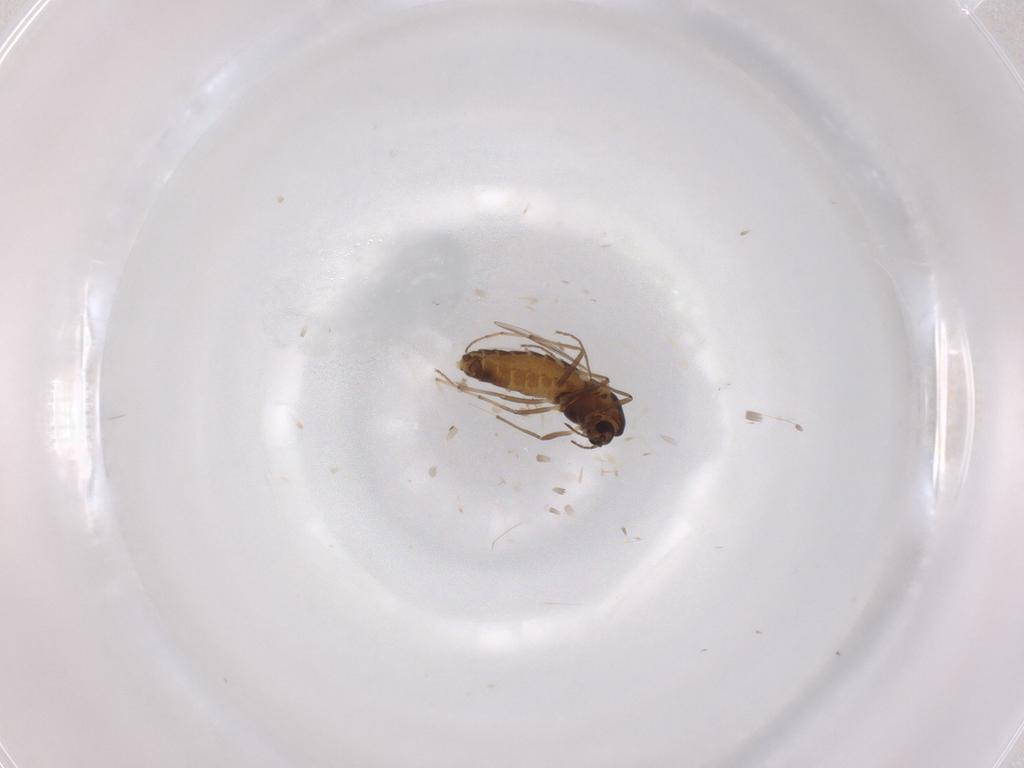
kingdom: Animalia
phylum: Arthropoda
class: Insecta
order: Diptera
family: Chironomidae
